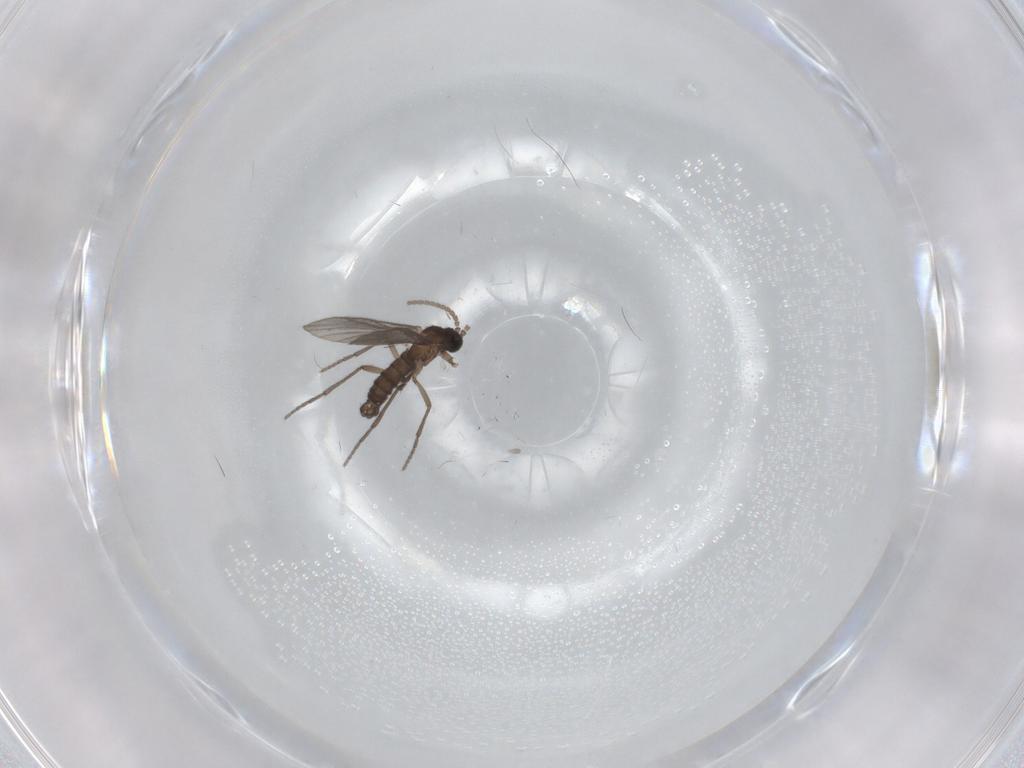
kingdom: Animalia
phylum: Arthropoda
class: Insecta
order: Diptera
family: Sciaridae
